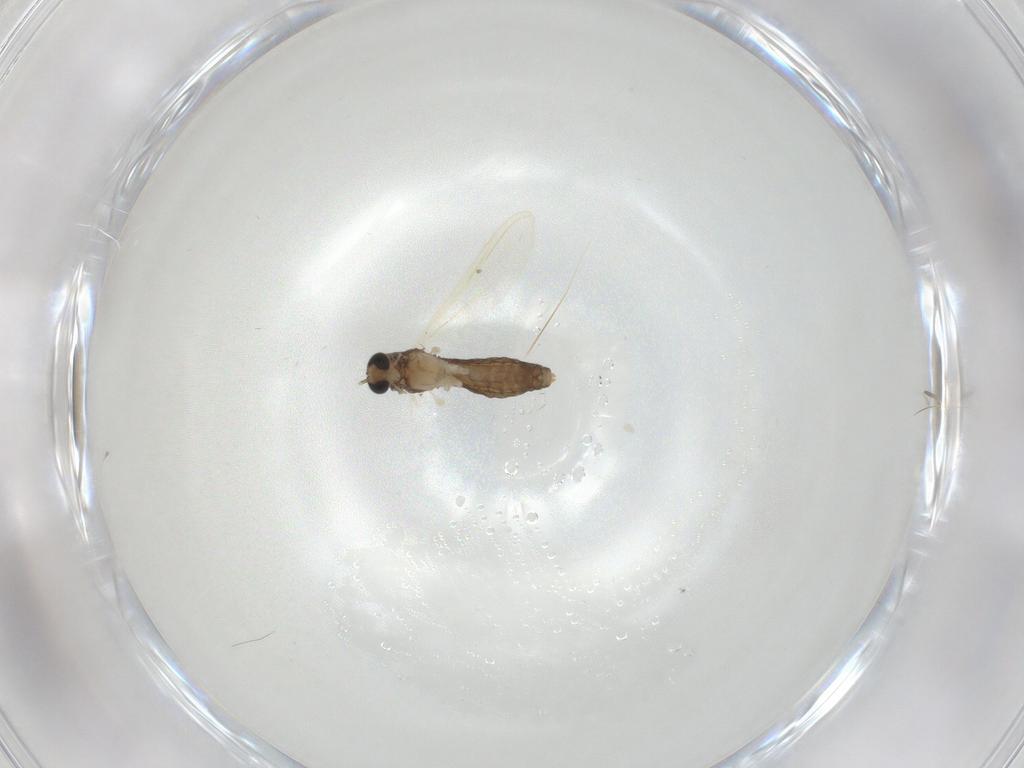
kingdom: Animalia
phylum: Arthropoda
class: Insecta
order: Diptera
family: Chironomidae
